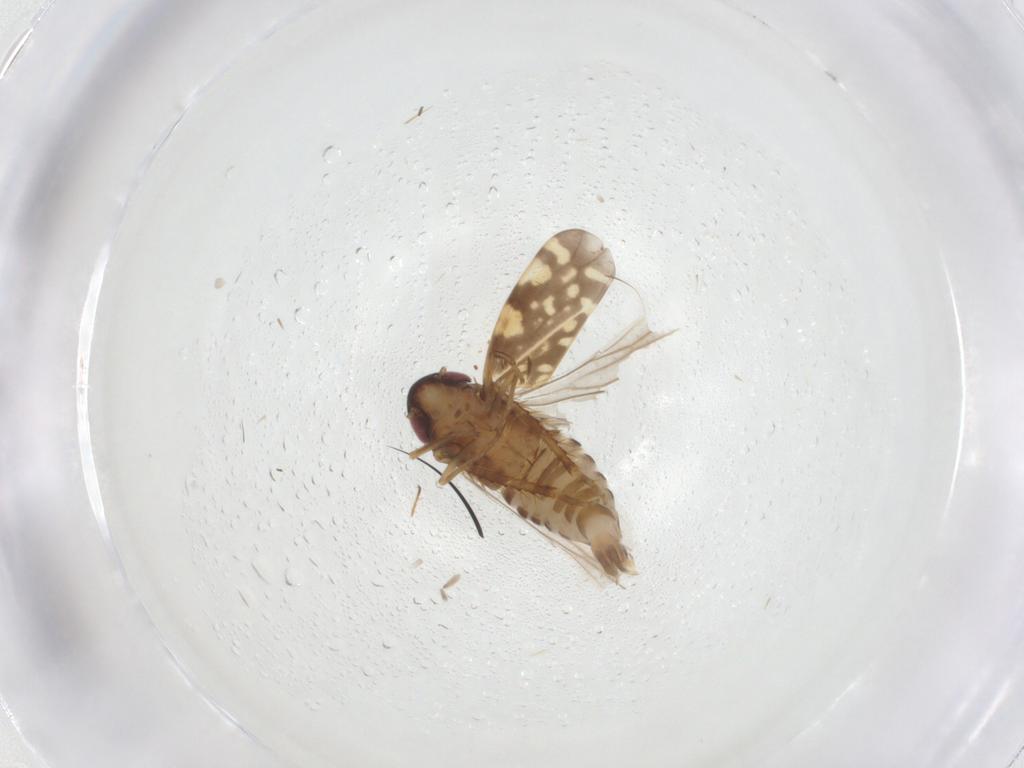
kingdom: Animalia
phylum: Arthropoda
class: Insecta
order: Hemiptera
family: Cicadellidae
